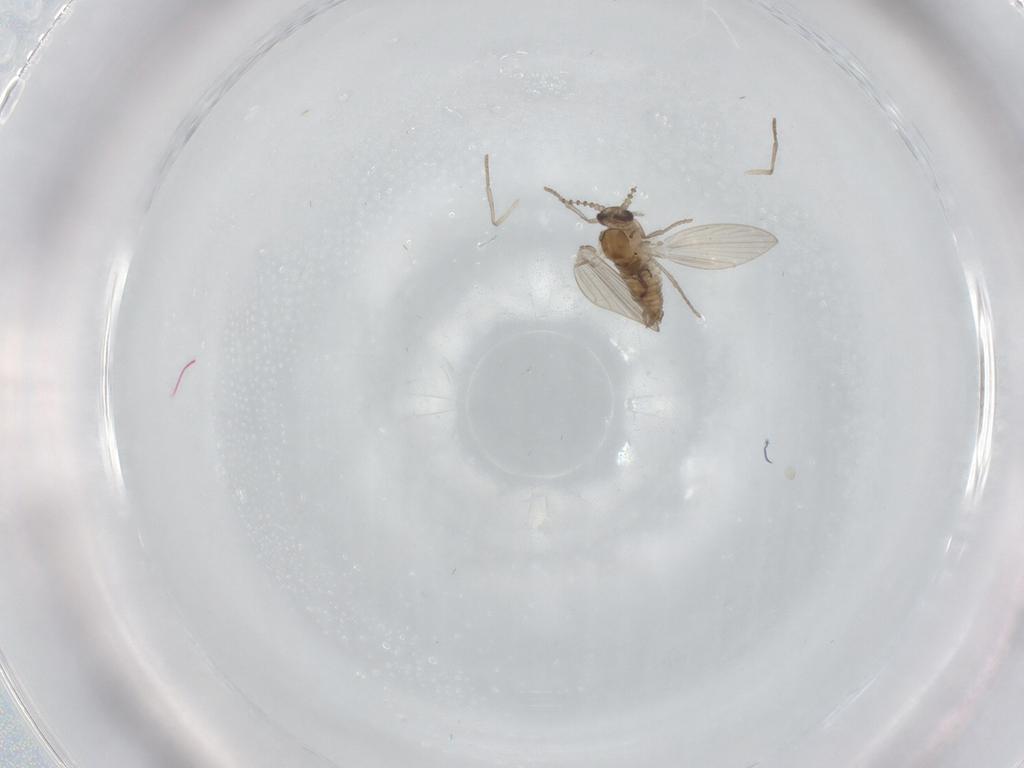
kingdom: Animalia
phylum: Arthropoda
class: Insecta
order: Diptera
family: Psychodidae
